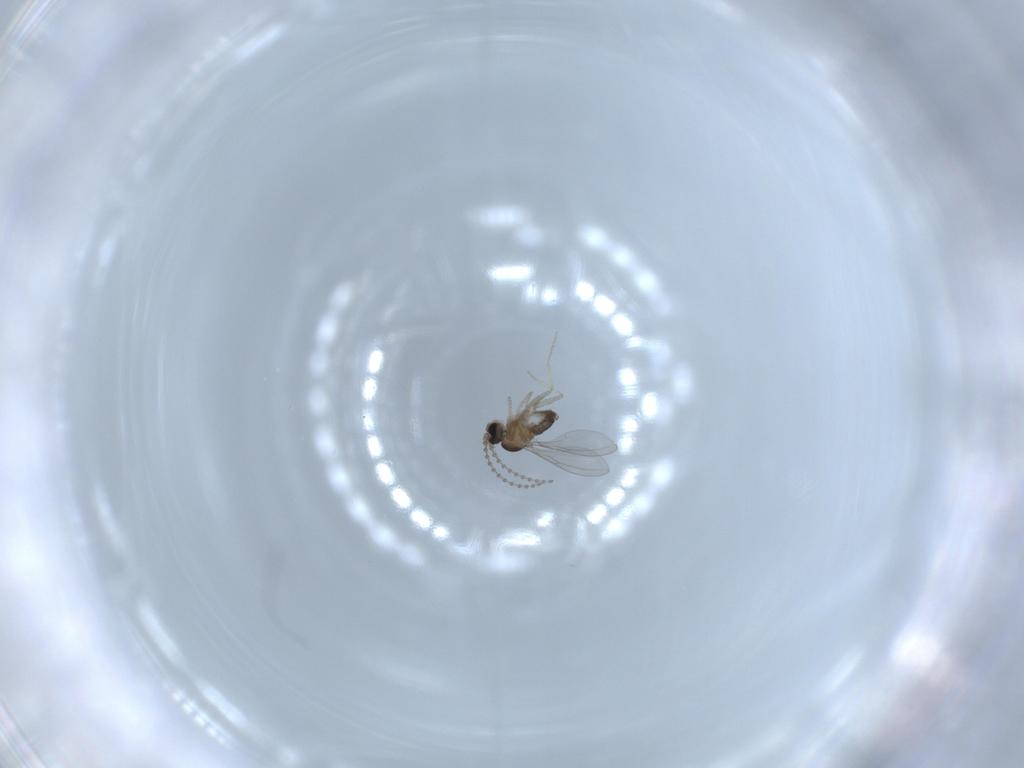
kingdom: Animalia
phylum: Arthropoda
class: Insecta
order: Diptera
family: Cecidomyiidae
